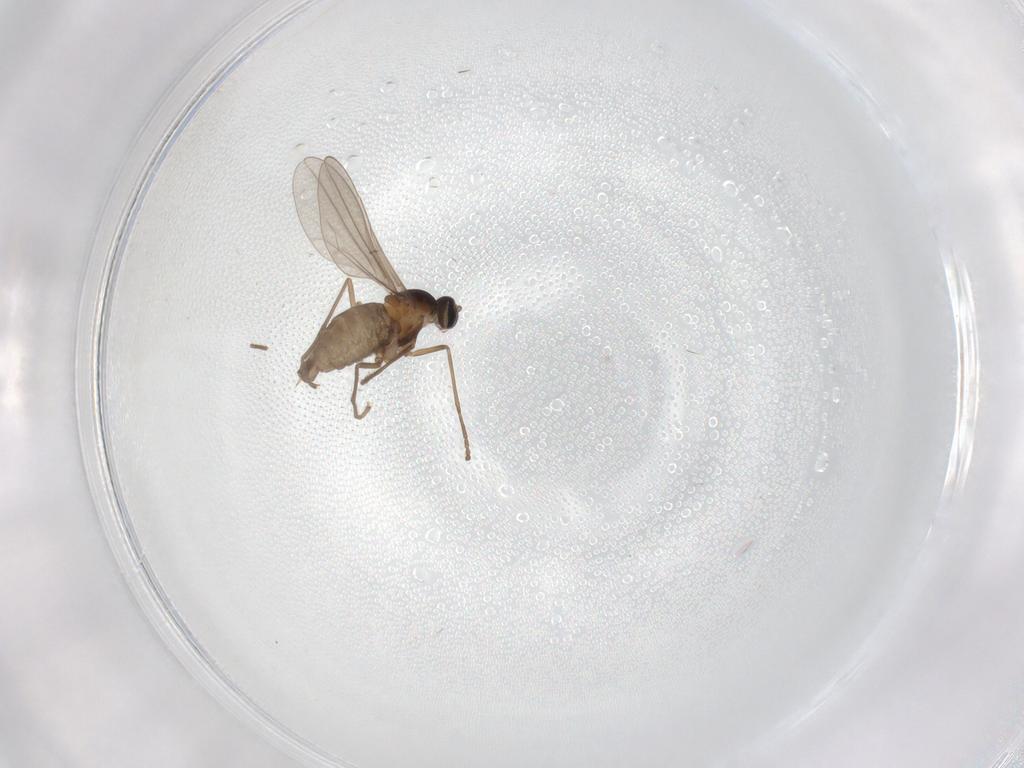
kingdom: Animalia
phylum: Arthropoda
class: Insecta
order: Diptera
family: Cecidomyiidae
